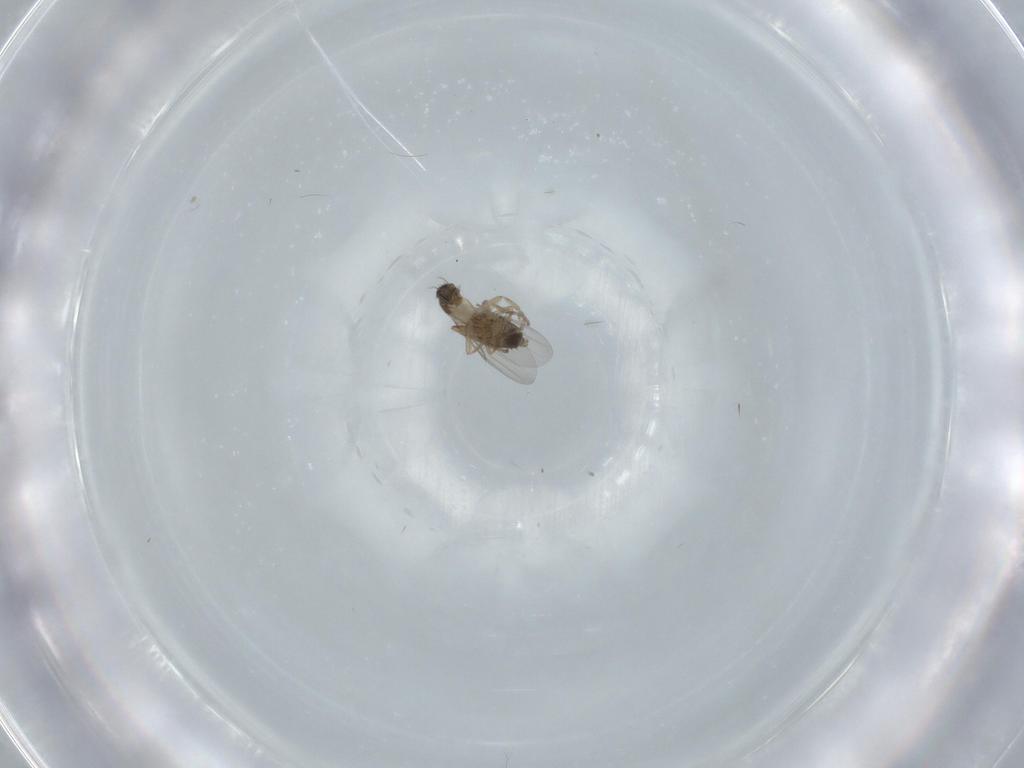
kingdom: Animalia
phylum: Arthropoda
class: Insecta
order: Diptera
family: Phoridae
